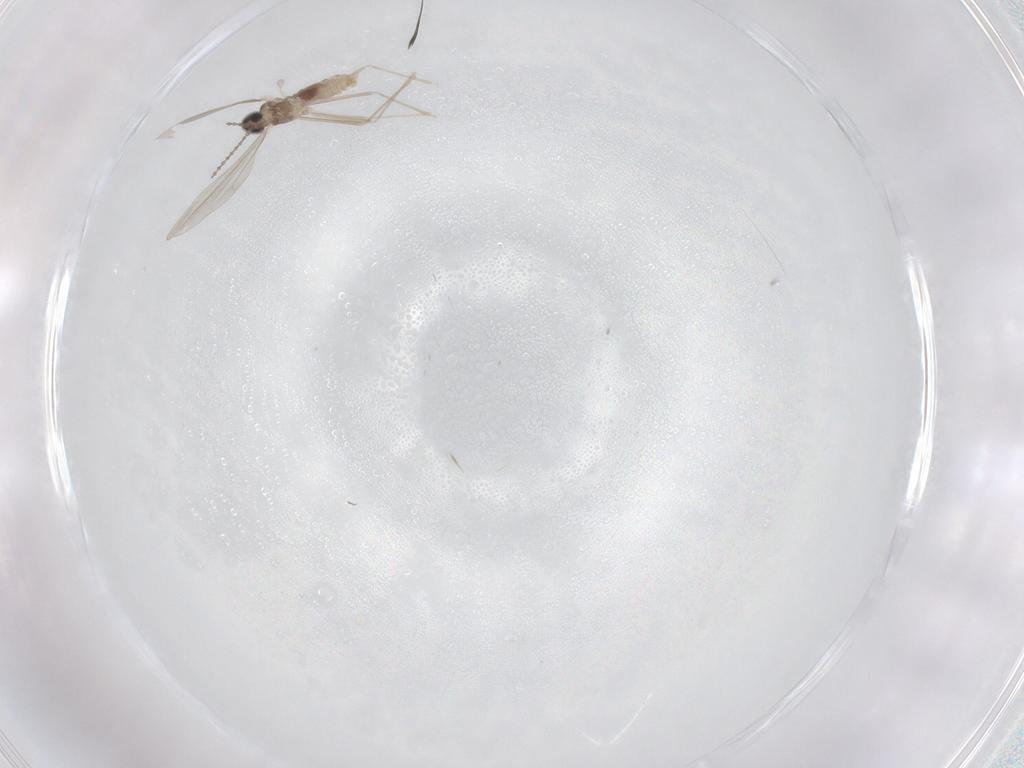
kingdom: Animalia
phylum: Arthropoda
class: Insecta
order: Diptera
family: Cecidomyiidae
